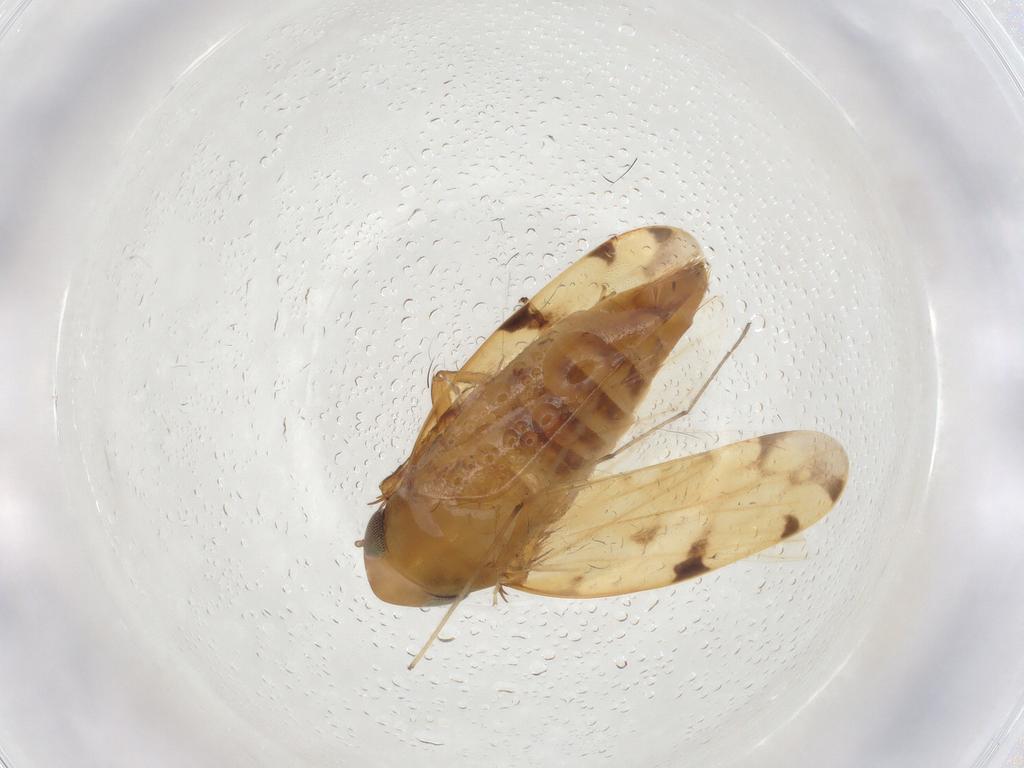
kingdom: Animalia
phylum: Arthropoda
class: Insecta
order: Hemiptera
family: Cicadellidae
